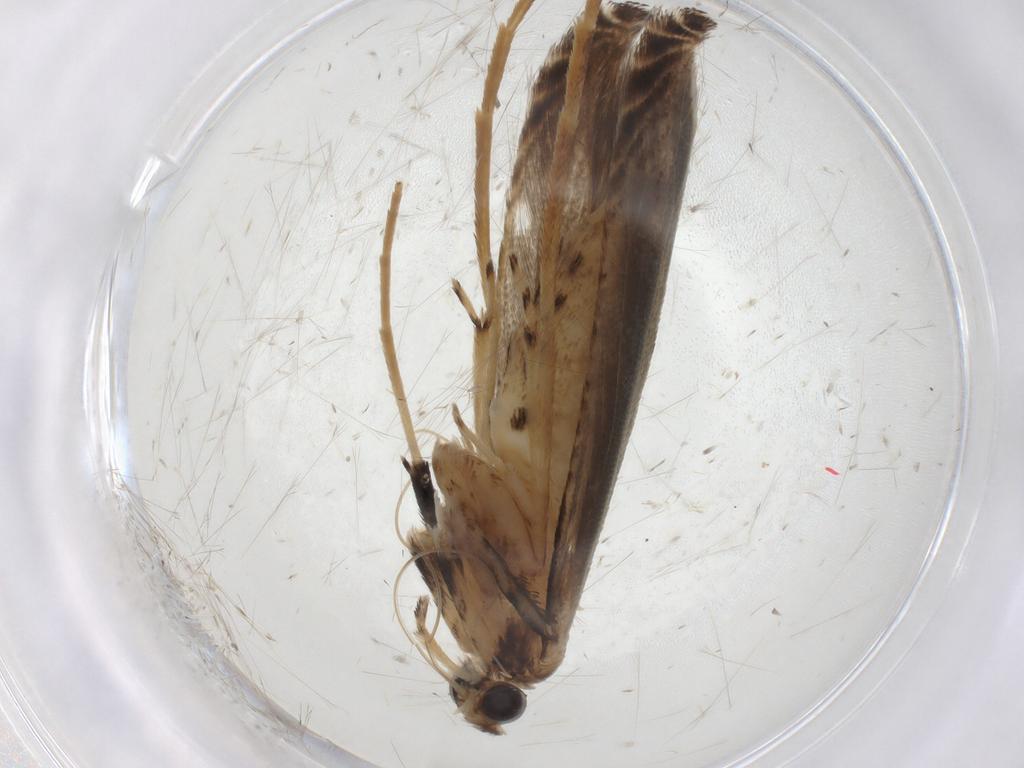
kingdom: Animalia
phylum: Arthropoda
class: Insecta
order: Lepidoptera
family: Gracillariidae
